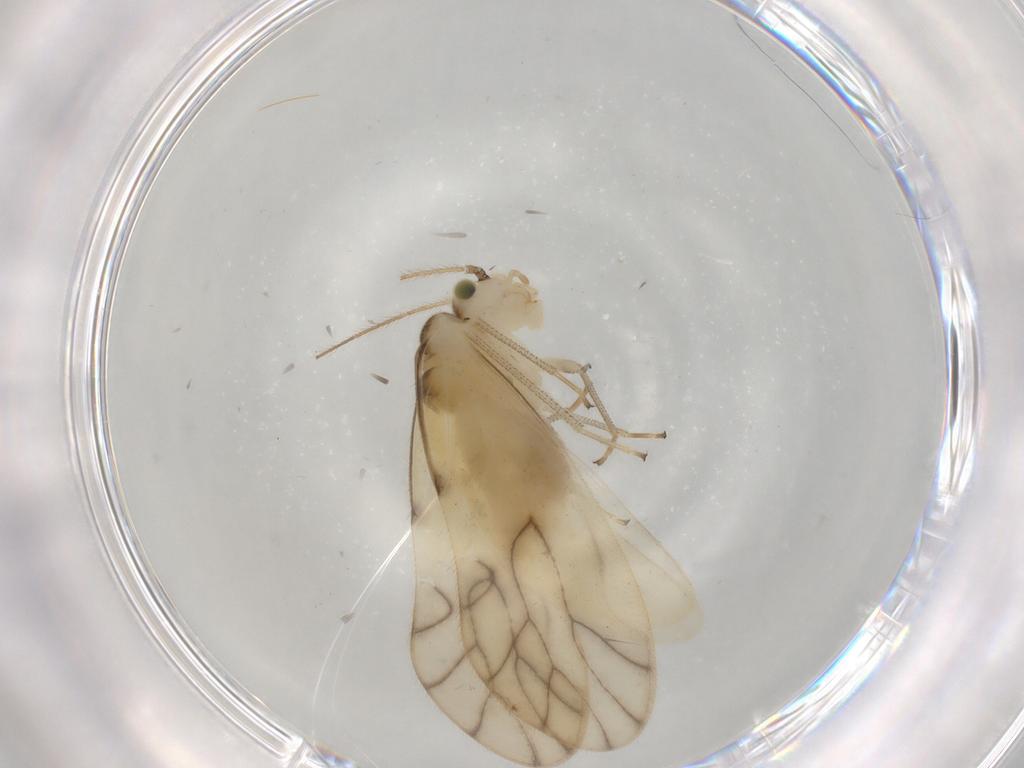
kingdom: Animalia
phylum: Arthropoda
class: Insecta
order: Psocodea
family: Caeciliusidae
